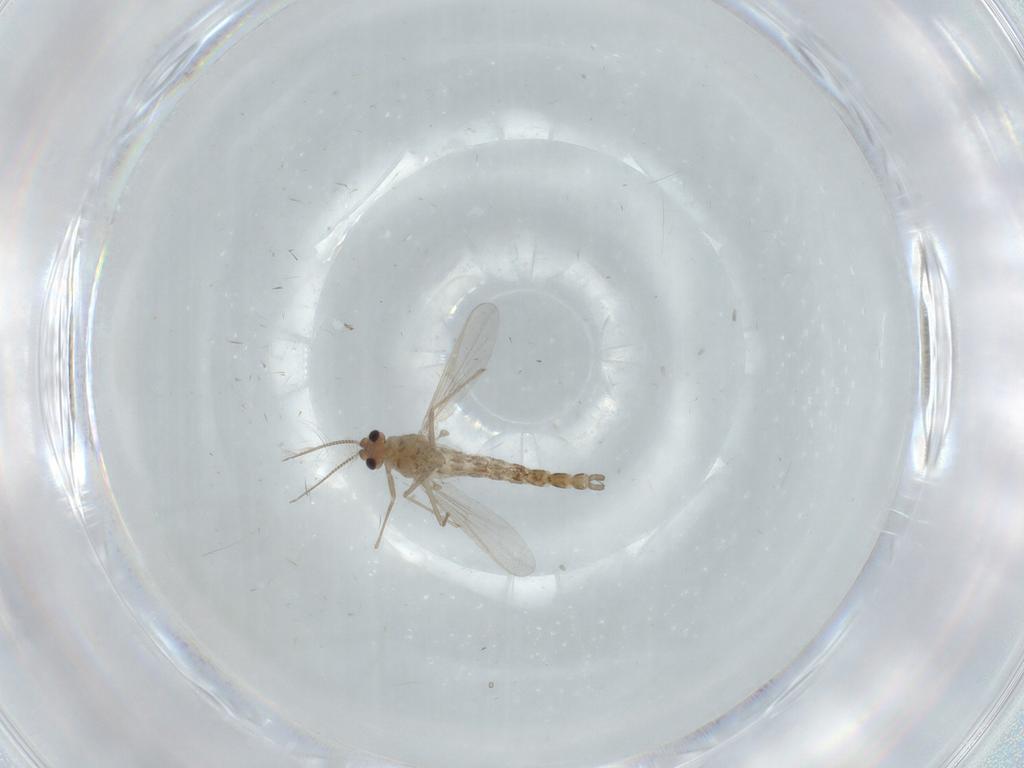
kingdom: Animalia
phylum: Arthropoda
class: Insecta
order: Diptera
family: Chironomidae
